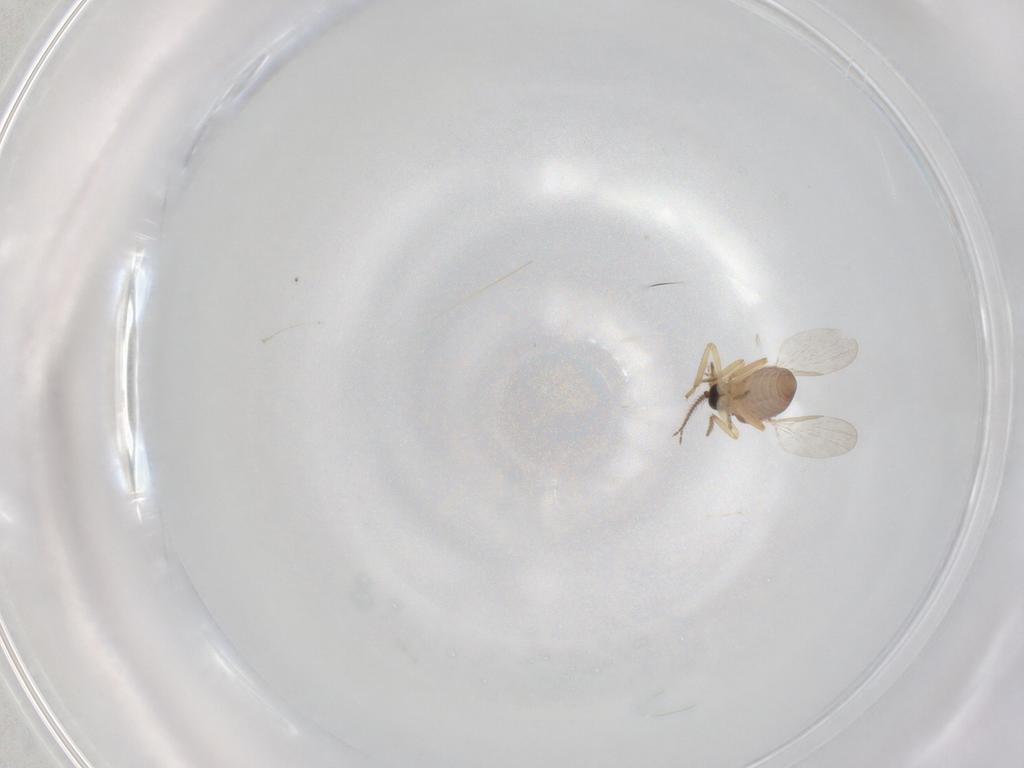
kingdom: Animalia
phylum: Arthropoda
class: Insecta
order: Diptera
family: Ceratopogonidae
